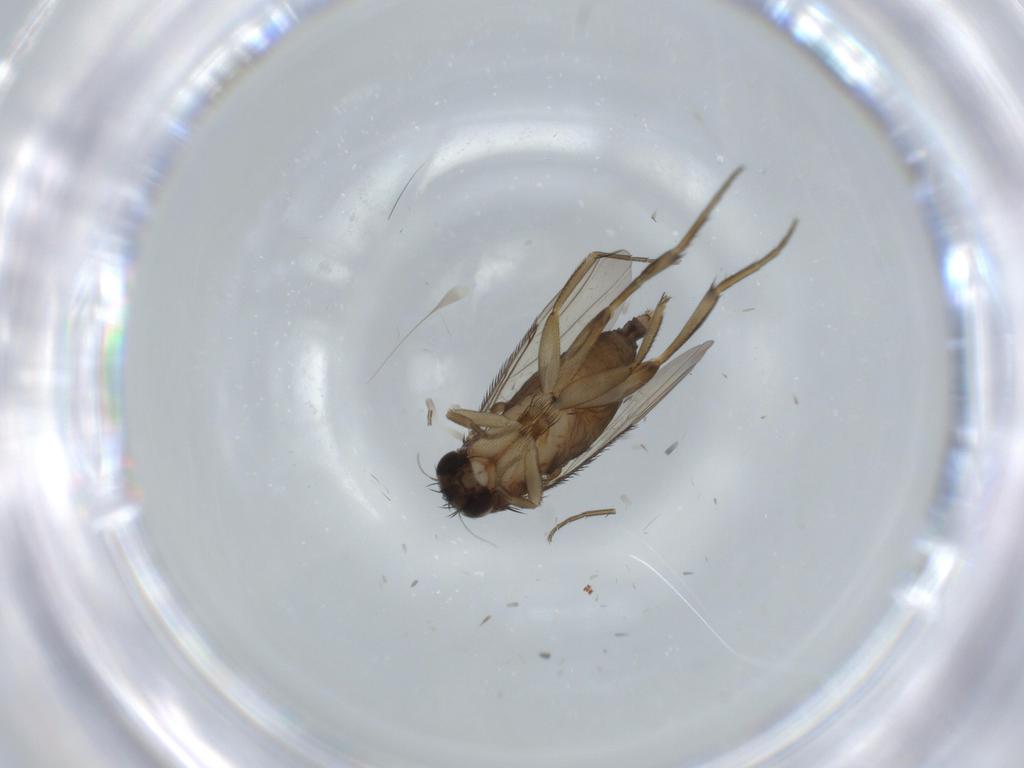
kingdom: Animalia
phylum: Arthropoda
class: Insecta
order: Diptera
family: Phoridae
